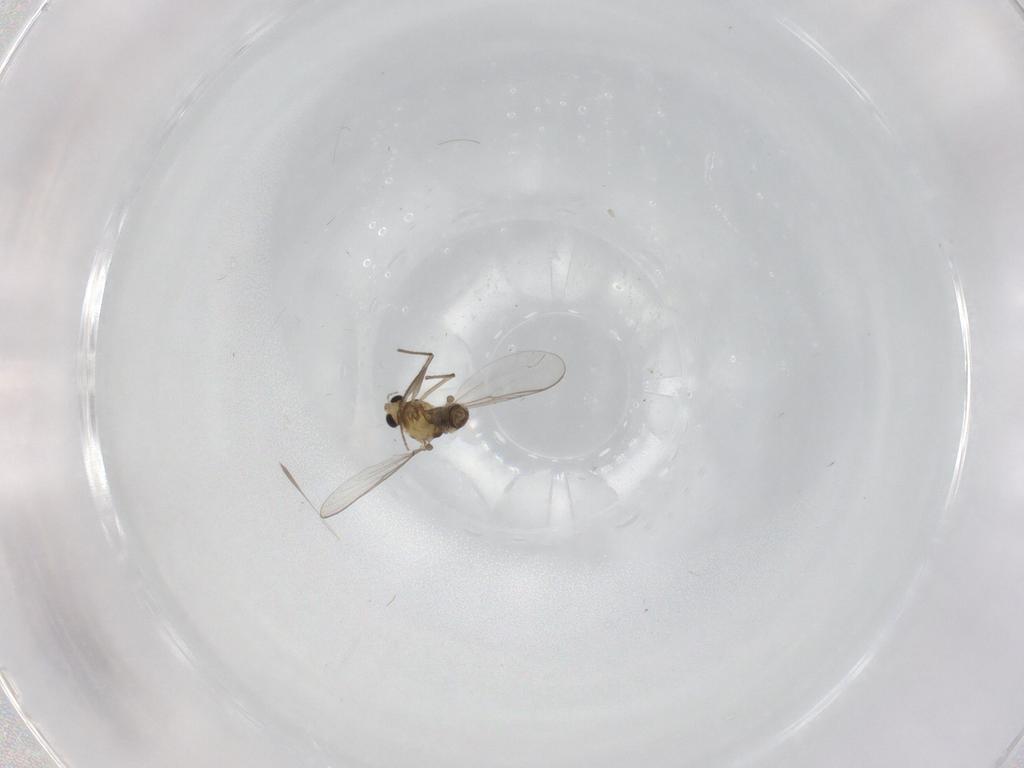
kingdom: Animalia
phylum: Arthropoda
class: Insecta
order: Diptera
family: Chironomidae
